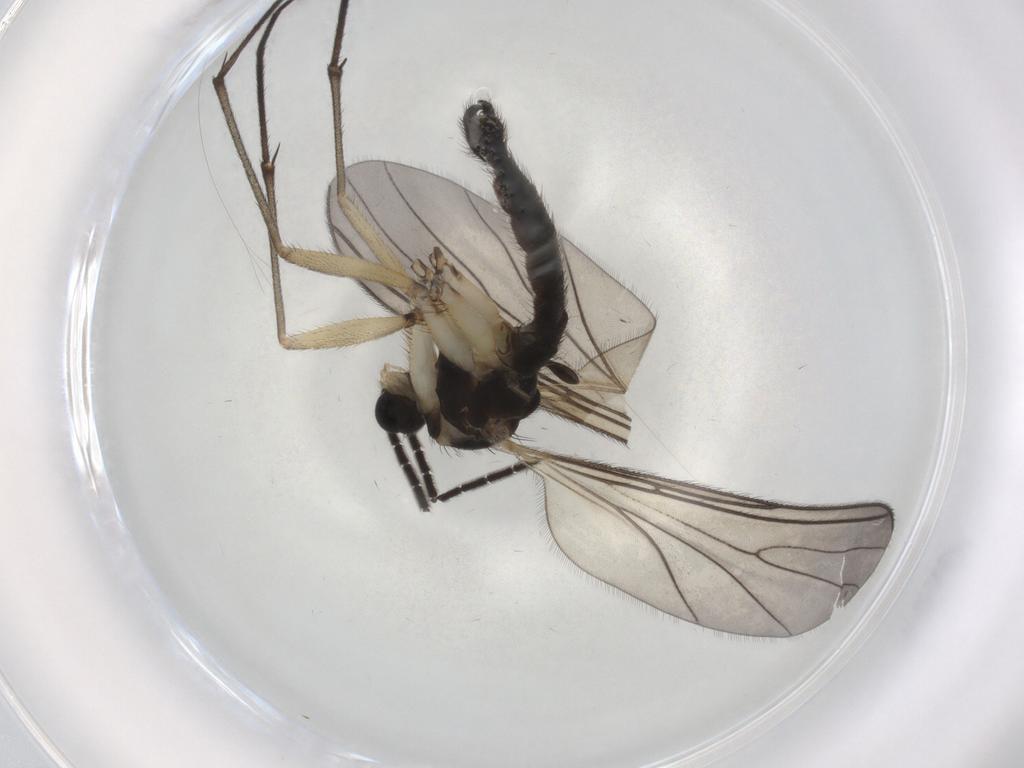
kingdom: Animalia
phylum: Arthropoda
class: Insecta
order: Diptera
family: Sciaridae
